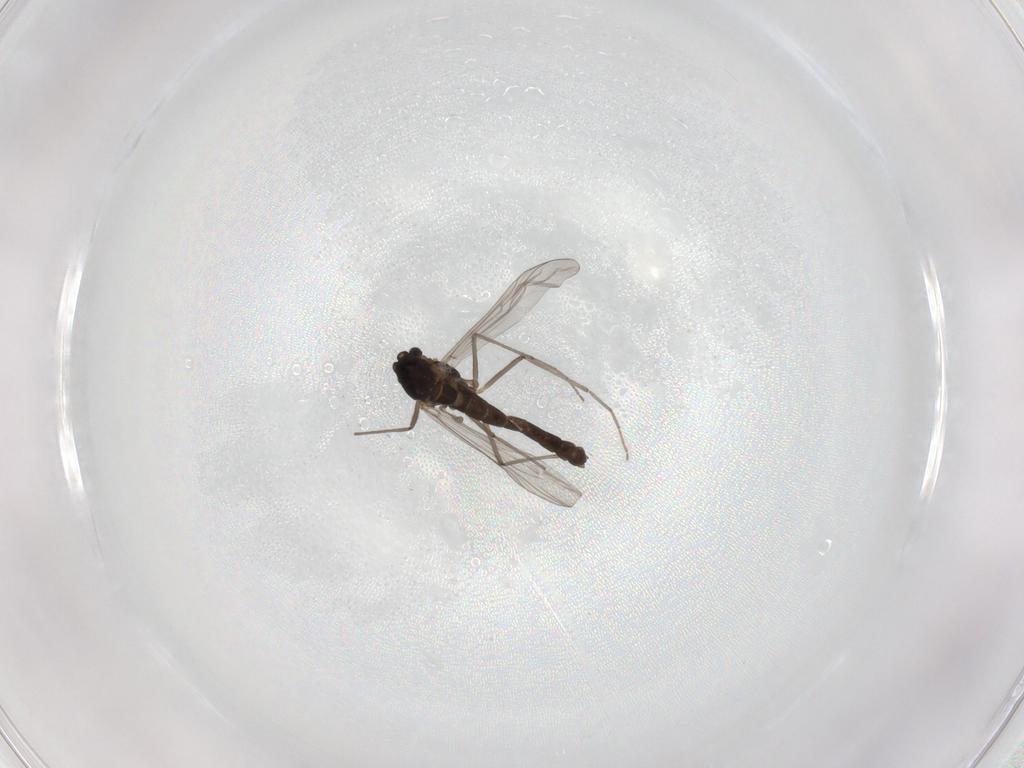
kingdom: Animalia
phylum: Arthropoda
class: Insecta
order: Diptera
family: Chironomidae
